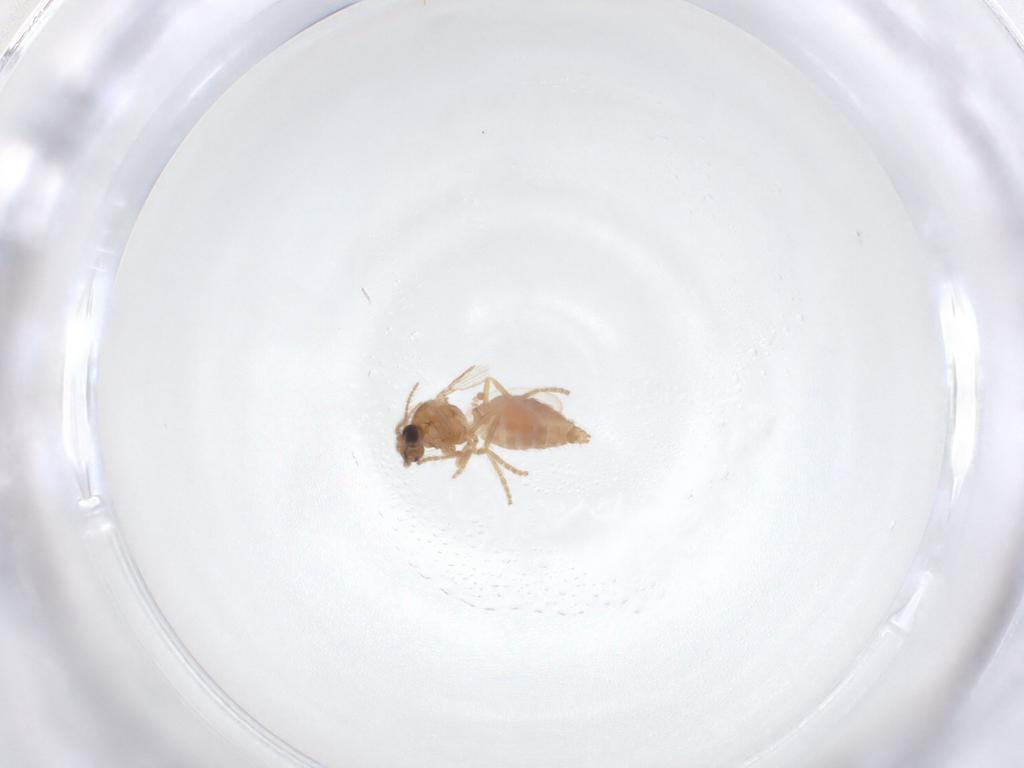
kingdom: Animalia
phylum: Arthropoda
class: Insecta
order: Diptera
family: Ceratopogonidae
